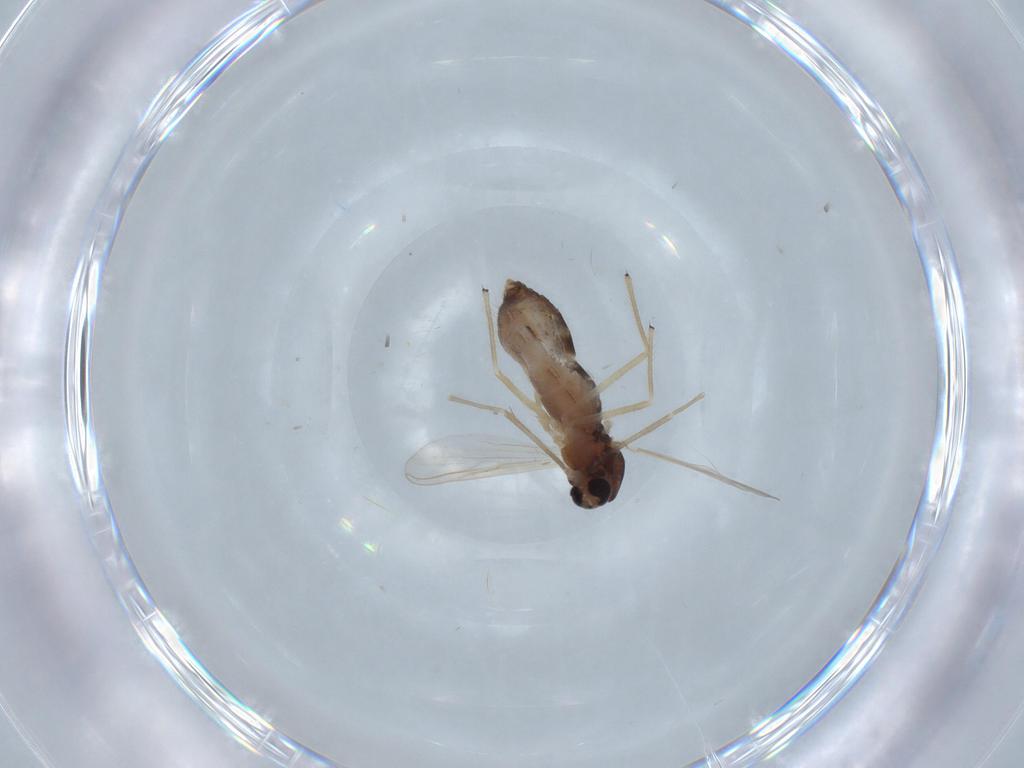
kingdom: Animalia
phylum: Arthropoda
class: Insecta
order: Diptera
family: Chironomidae
